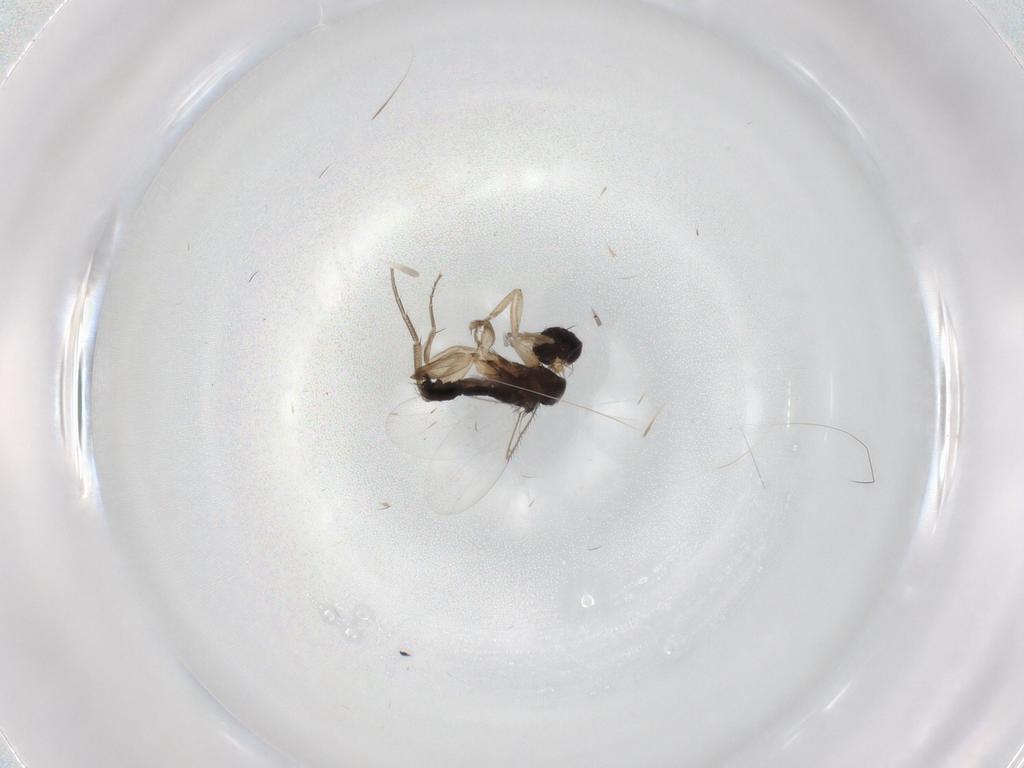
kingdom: Animalia
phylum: Arthropoda
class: Insecta
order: Diptera
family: Phoridae
